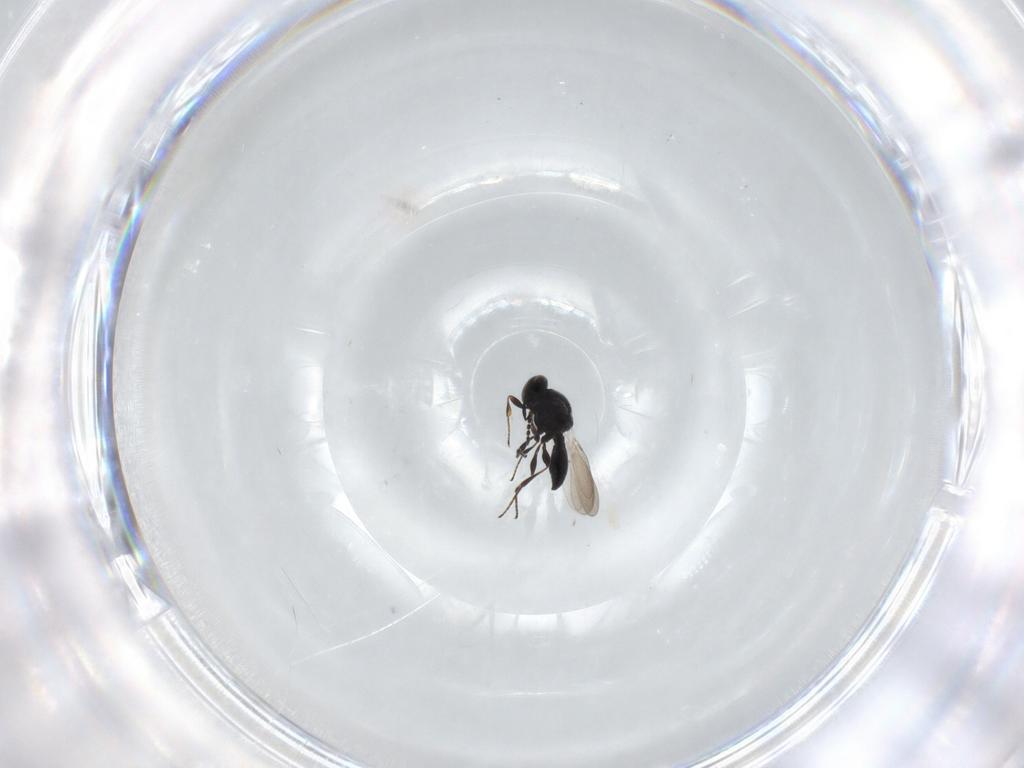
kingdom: Animalia
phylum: Arthropoda
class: Insecta
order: Hymenoptera
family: Platygastridae
